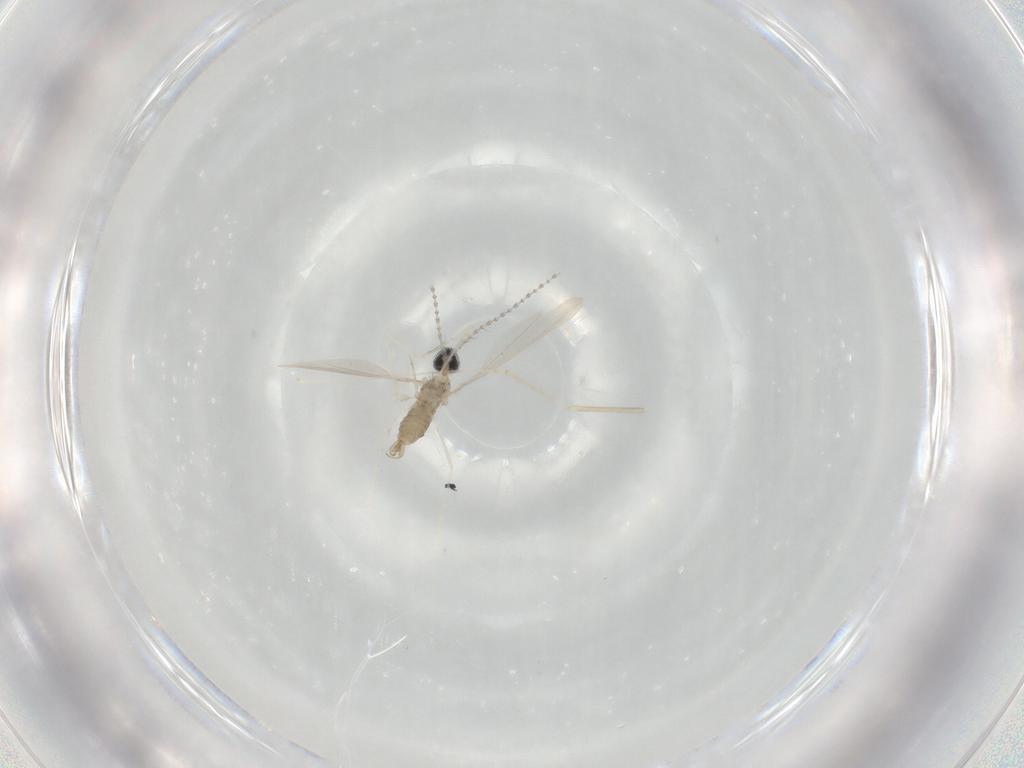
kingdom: Animalia
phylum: Arthropoda
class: Insecta
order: Diptera
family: Cecidomyiidae
